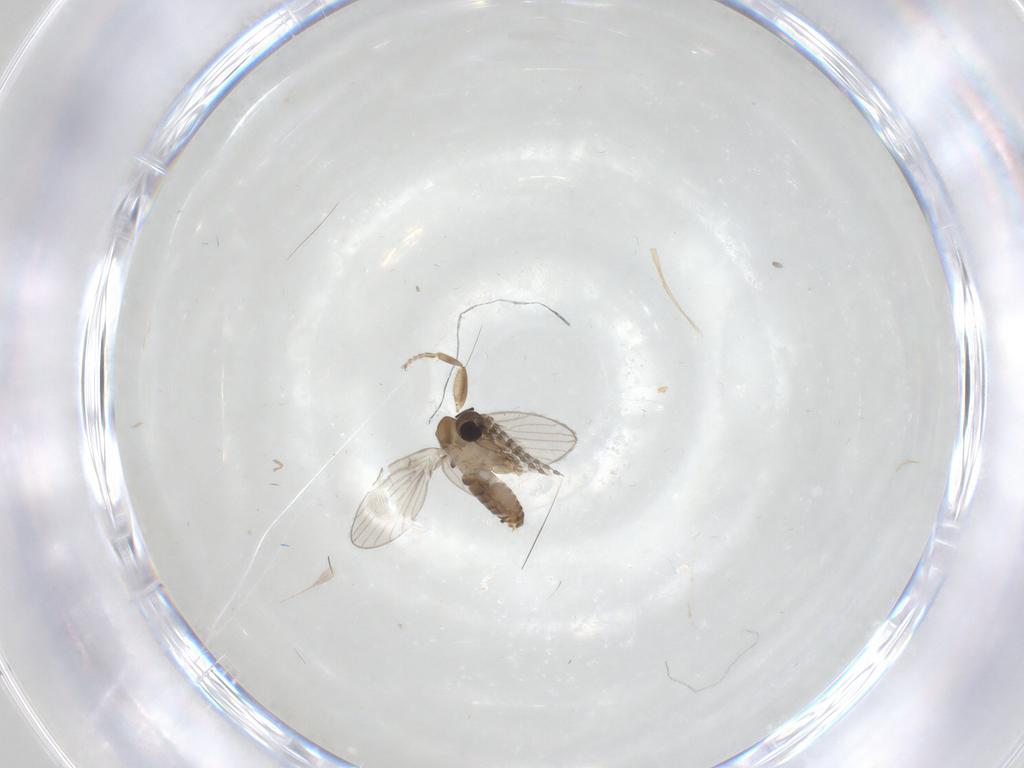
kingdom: Animalia
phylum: Arthropoda
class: Insecta
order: Diptera
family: Psychodidae
